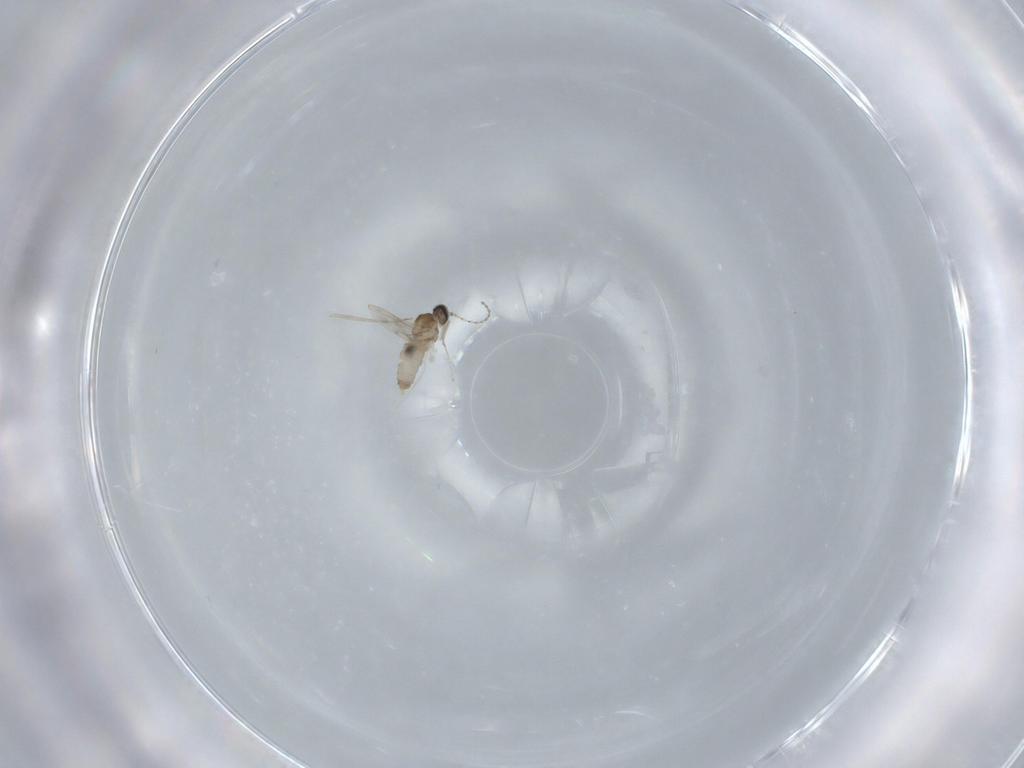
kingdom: Animalia
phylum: Arthropoda
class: Insecta
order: Diptera
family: Cecidomyiidae
